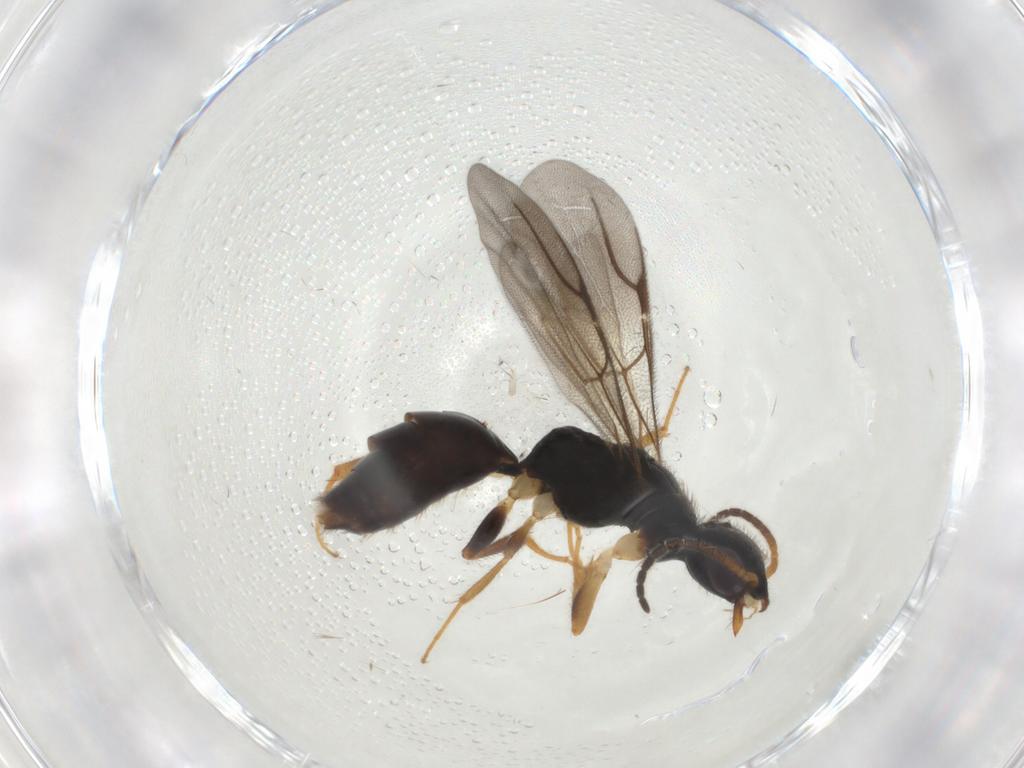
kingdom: Animalia
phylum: Arthropoda
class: Insecta
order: Hymenoptera
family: Bethylidae
